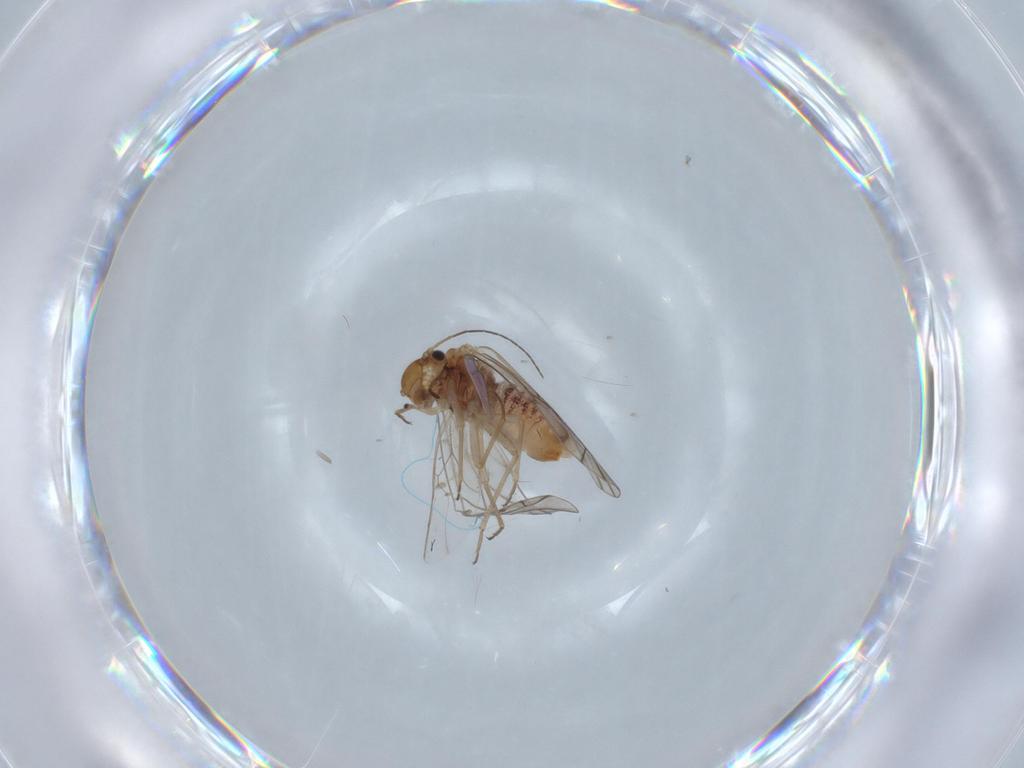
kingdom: Animalia
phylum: Arthropoda
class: Insecta
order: Psocodea
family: Lachesillidae
